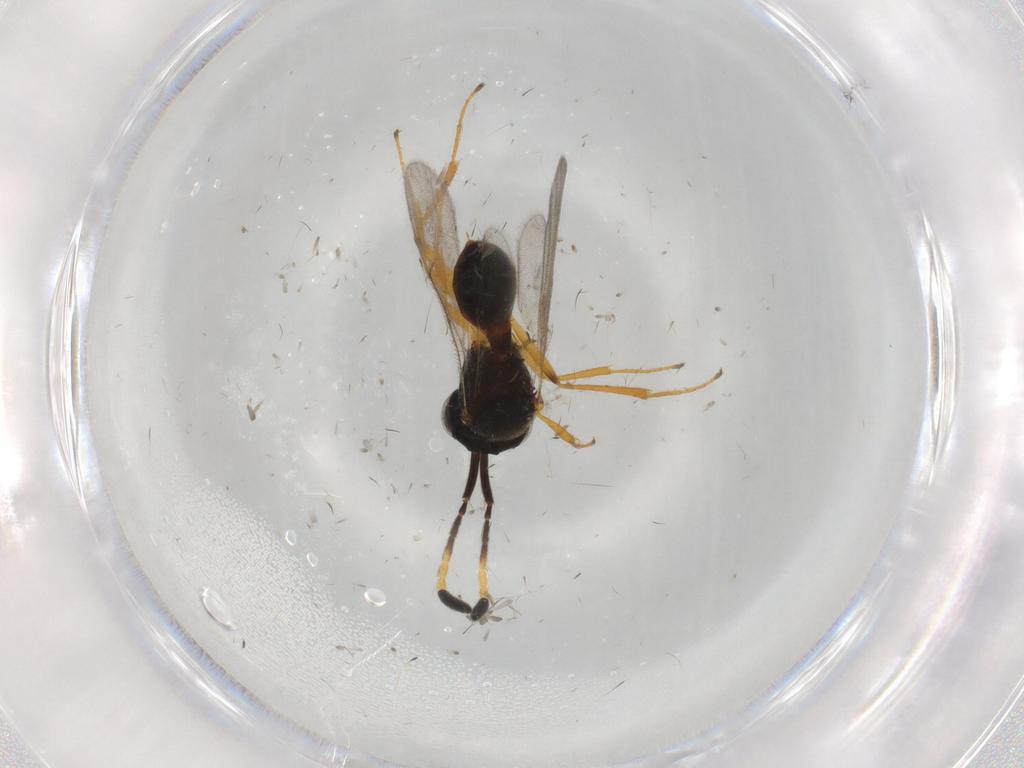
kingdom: Animalia
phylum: Arthropoda
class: Insecta
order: Hymenoptera
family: Scelionidae
